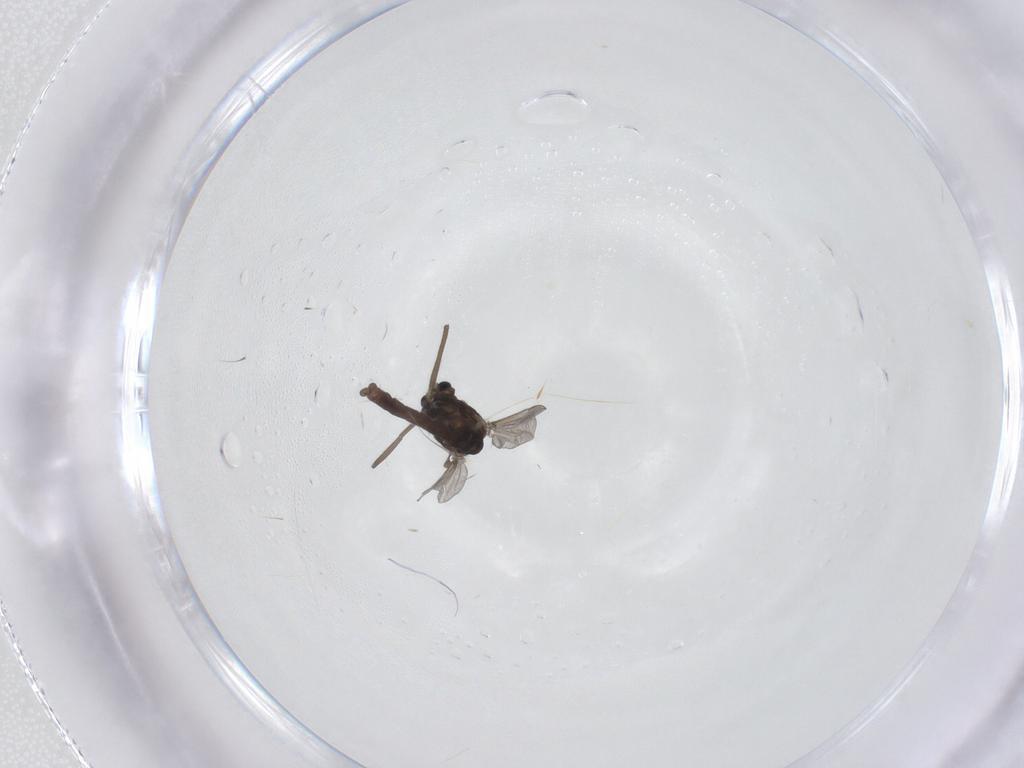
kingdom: Animalia
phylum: Arthropoda
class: Insecta
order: Diptera
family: Chironomidae
